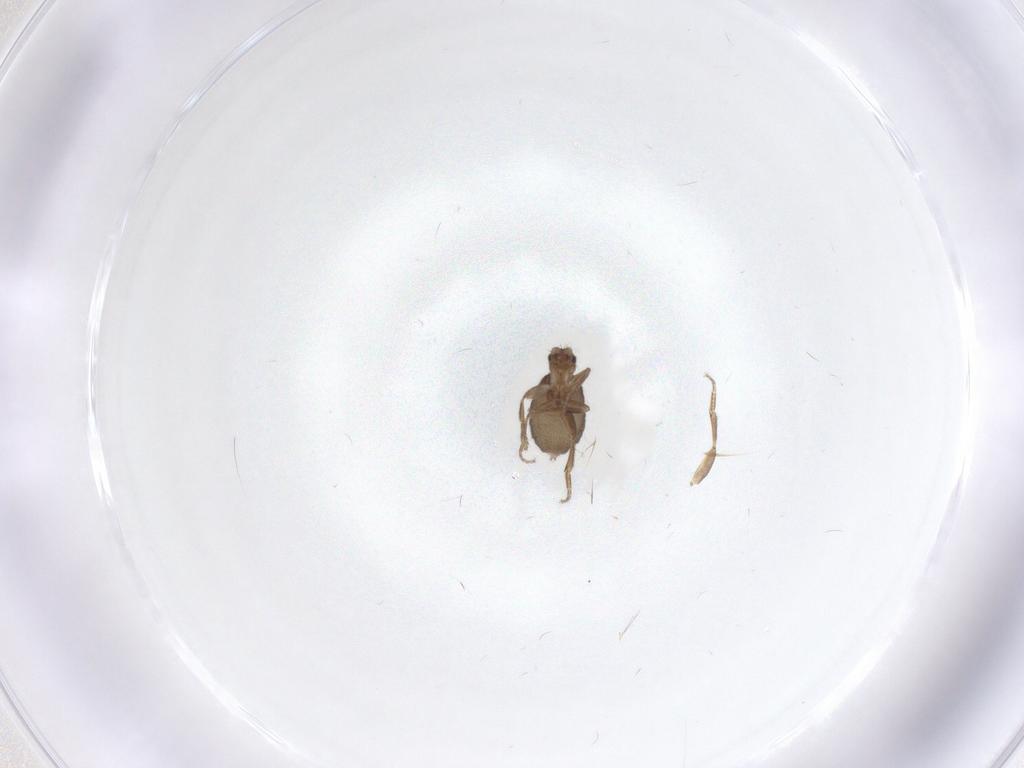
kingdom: Animalia
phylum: Arthropoda
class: Insecta
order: Diptera
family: Phoridae
